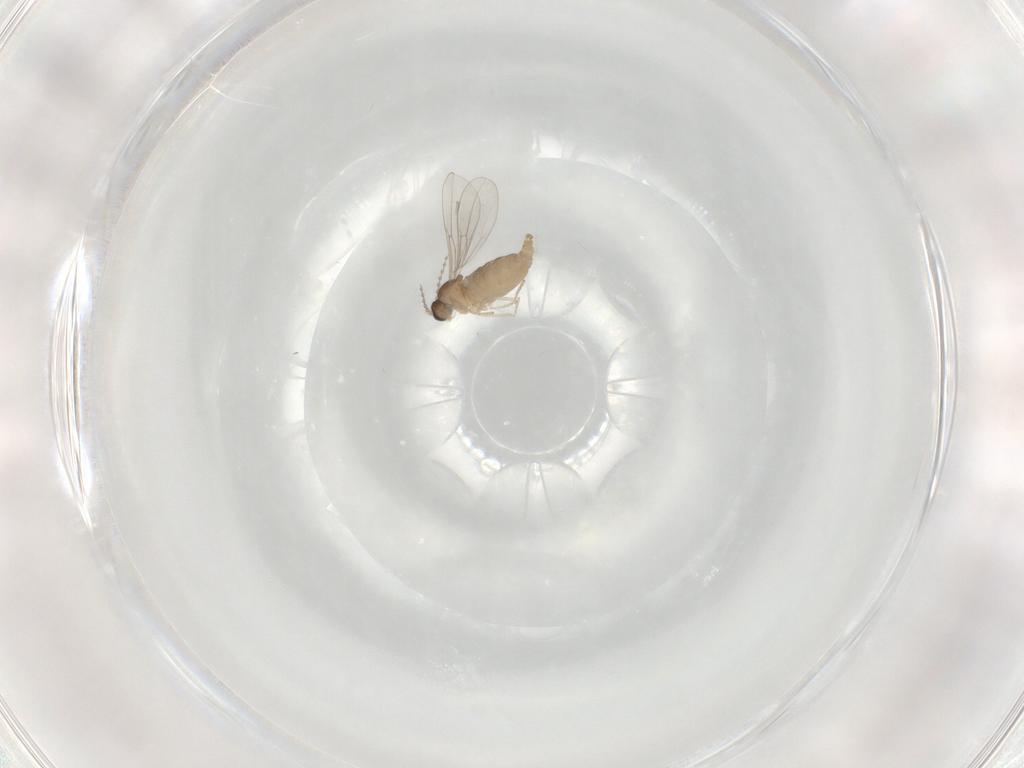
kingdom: Animalia
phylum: Arthropoda
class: Insecta
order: Diptera
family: Cecidomyiidae
